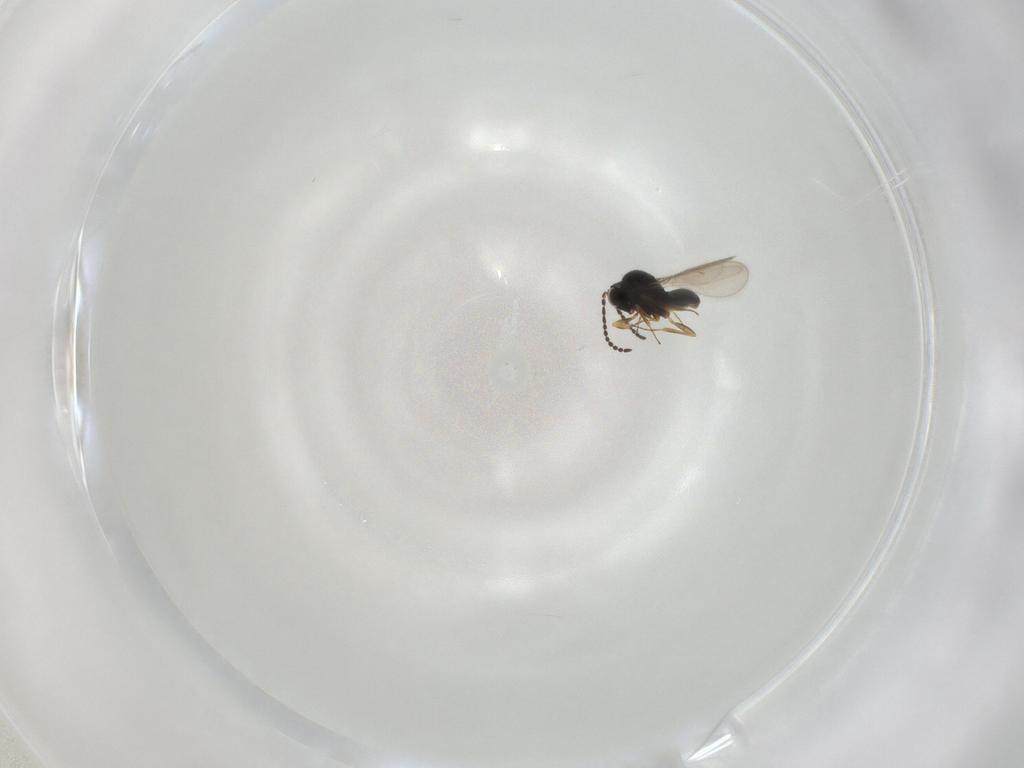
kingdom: Animalia
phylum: Arthropoda
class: Insecta
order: Hymenoptera
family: Scelionidae
